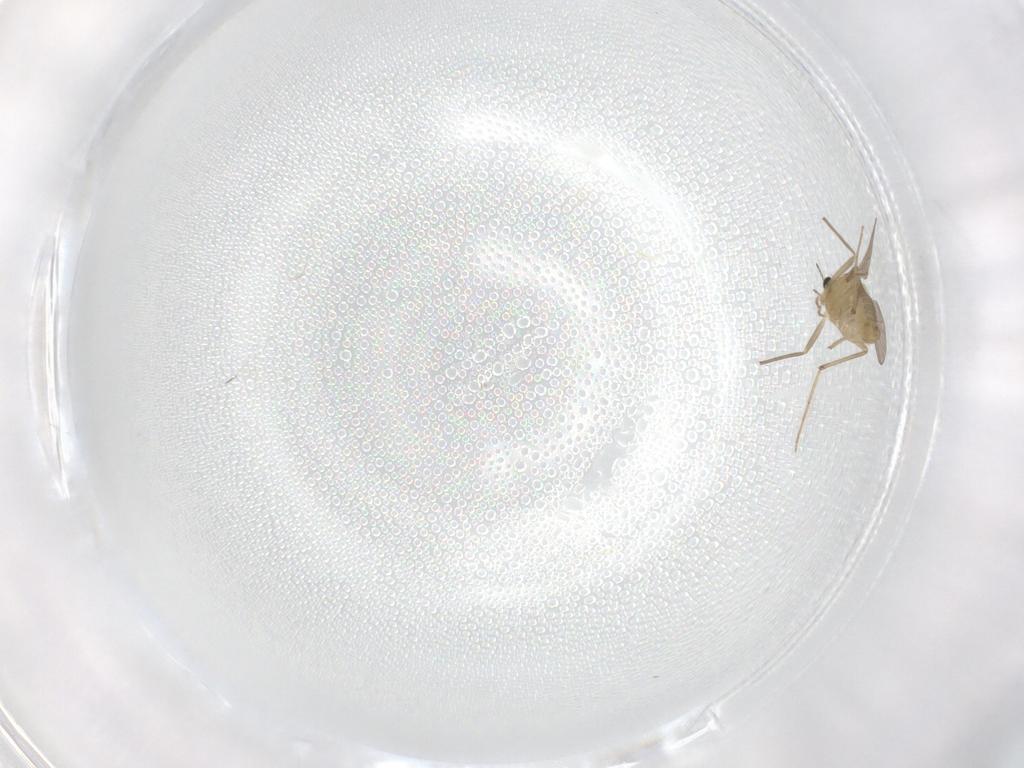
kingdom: Animalia
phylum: Arthropoda
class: Insecta
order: Diptera
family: Chironomidae
